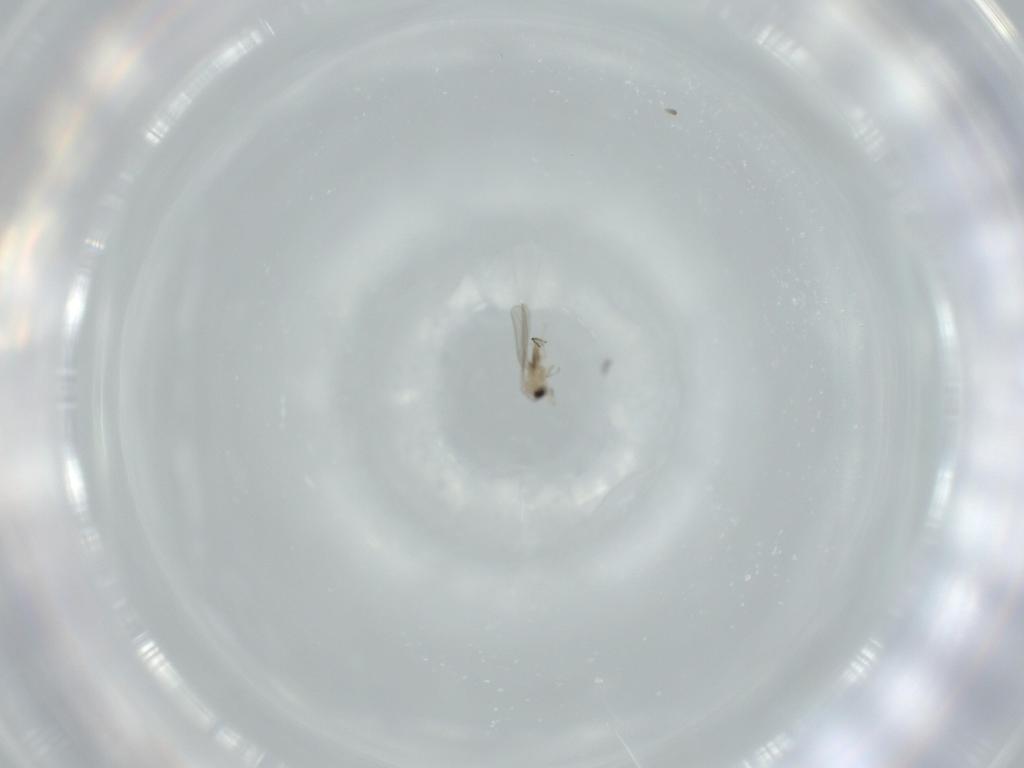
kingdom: Animalia
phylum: Arthropoda
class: Insecta
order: Diptera
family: Cecidomyiidae
